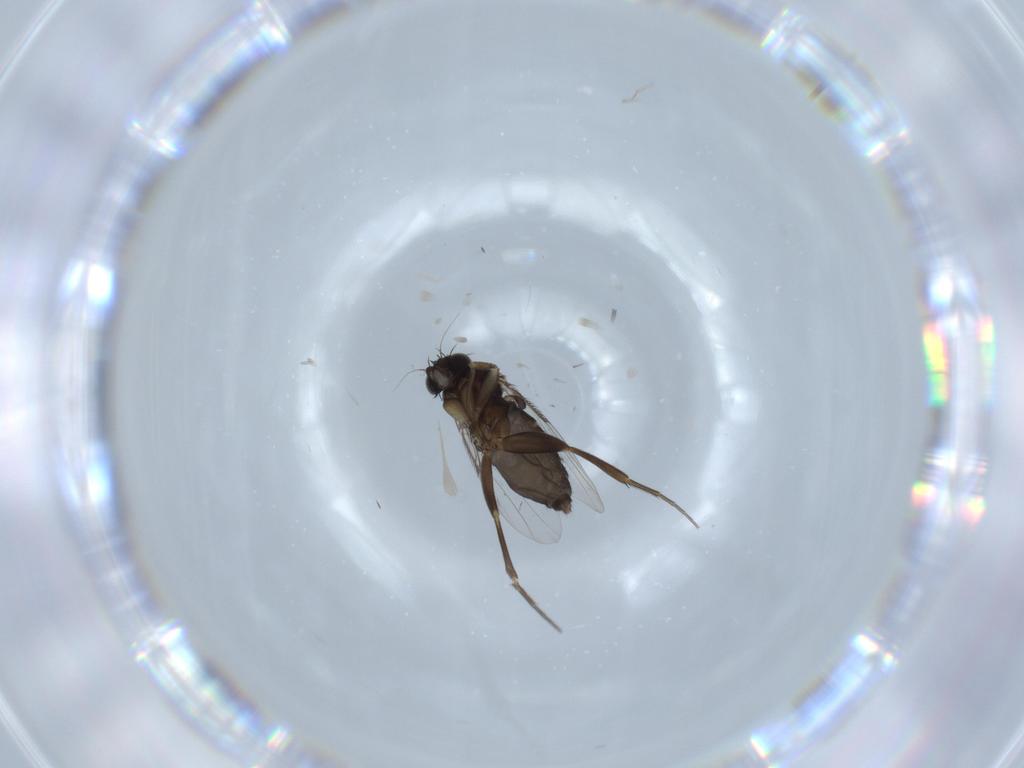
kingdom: Animalia
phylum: Arthropoda
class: Insecta
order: Diptera
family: Phoridae
